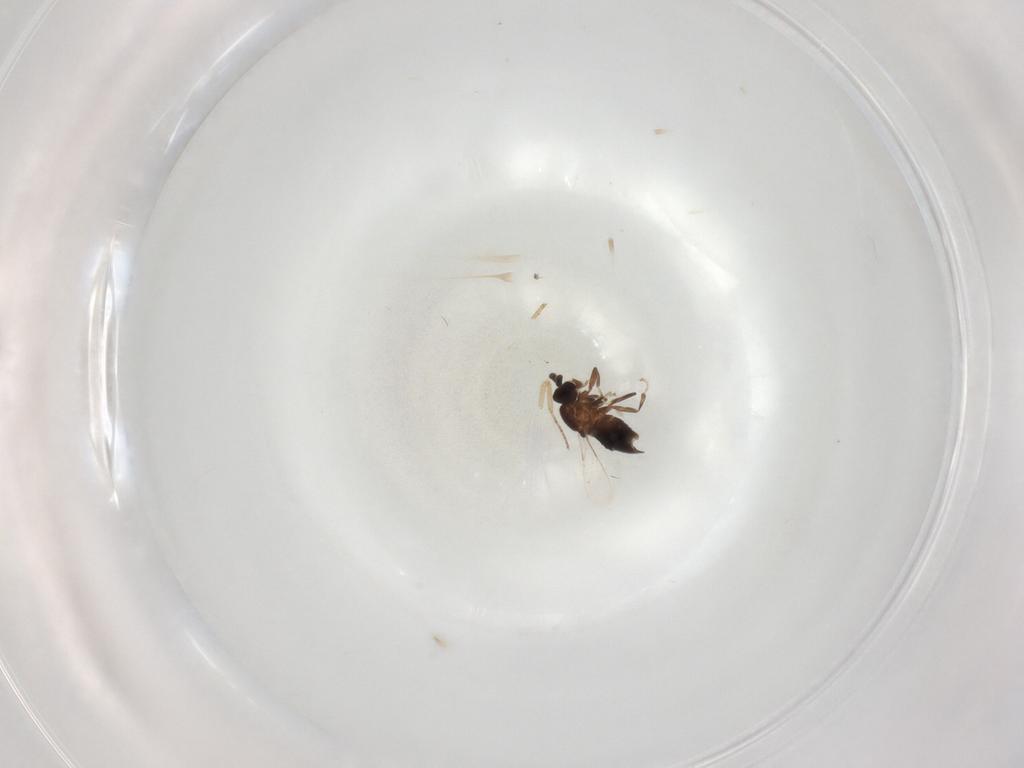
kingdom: Animalia
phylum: Arthropoda
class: Insecta
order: Diptera
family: Scatopsidae
